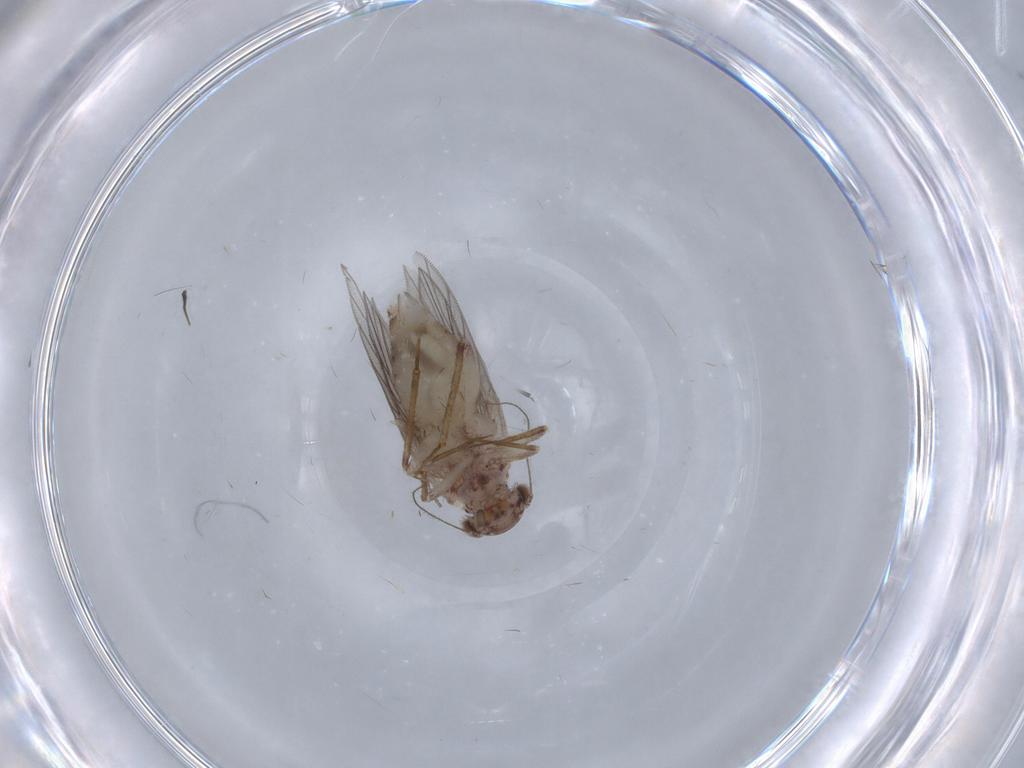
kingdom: Animalia
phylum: Arthropoda
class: Insecta
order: Psocodea
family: Lepidopsocidae
